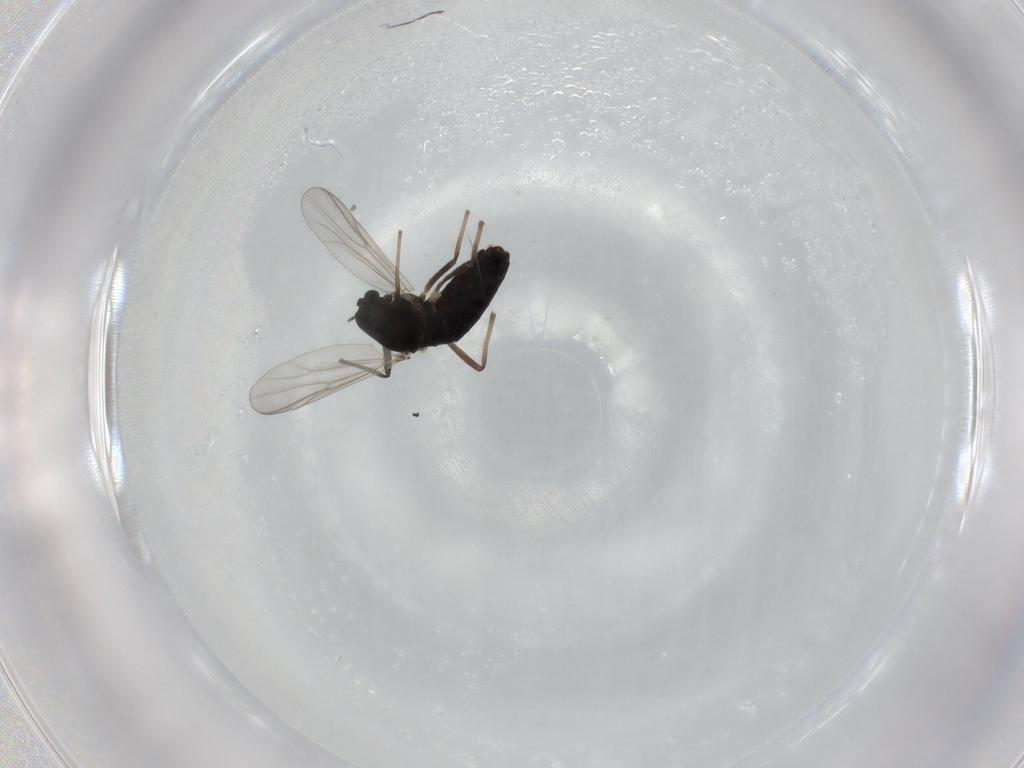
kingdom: Animalia
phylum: Arthropoda
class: Insecta
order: Diptera
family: Chironomidae
